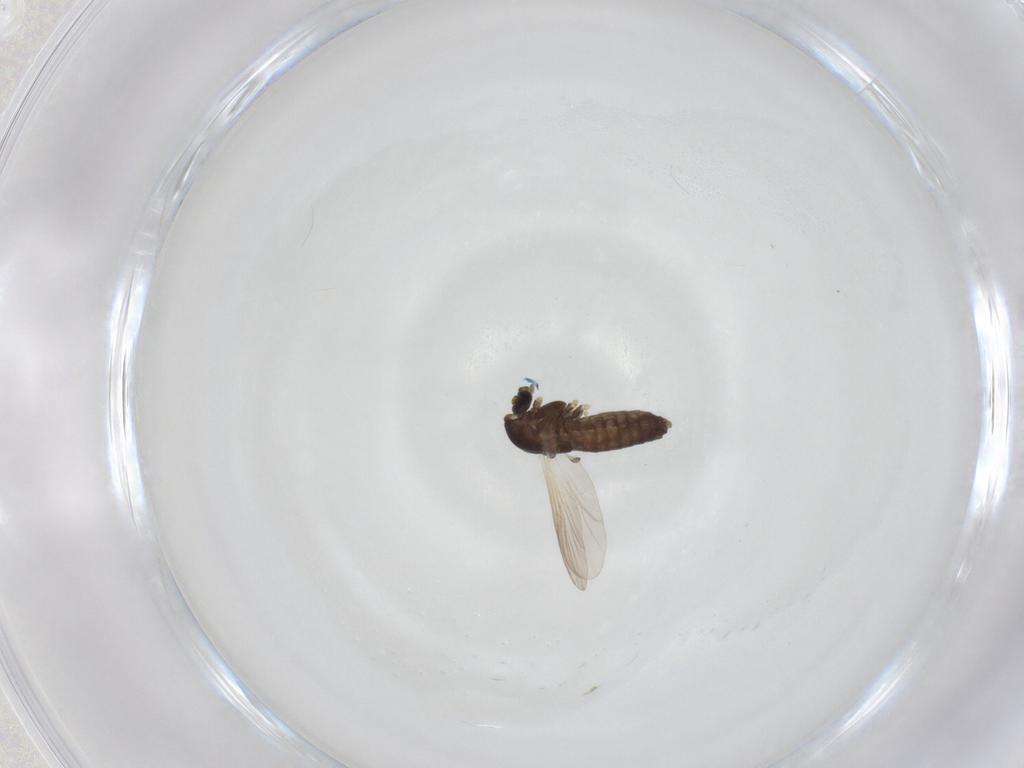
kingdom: Animalia
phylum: Arthropoda
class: Insecta
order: Diptera
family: Chironomidae
